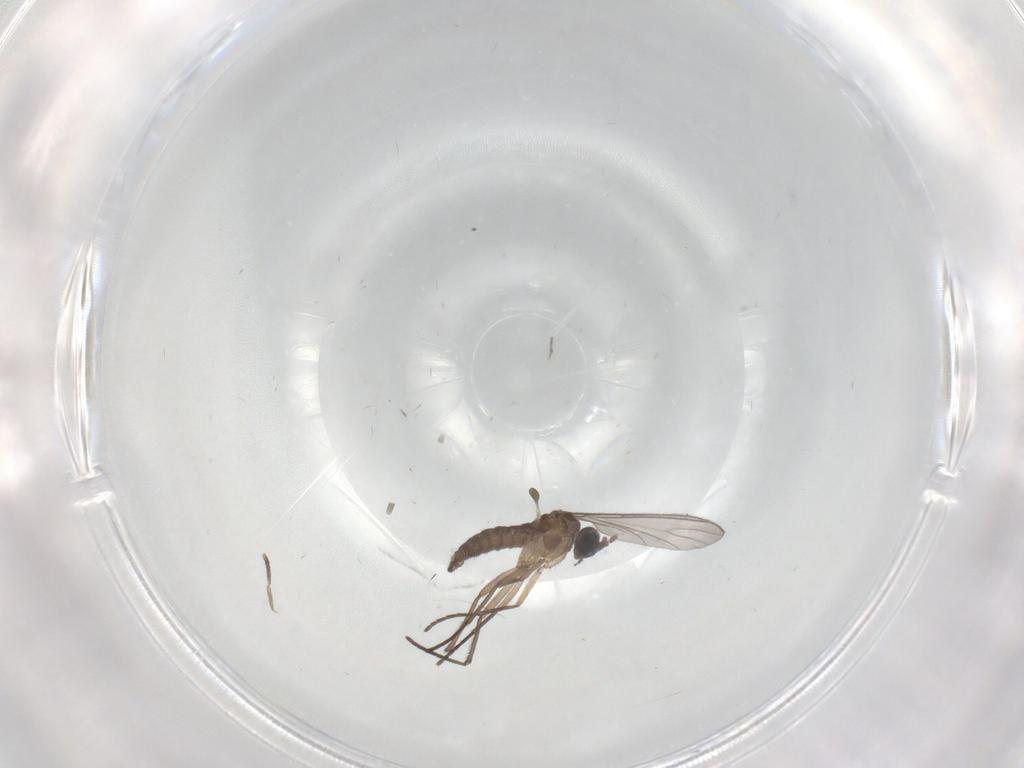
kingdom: Animalia
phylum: Arthropoda
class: Insecta
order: Diptera
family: Cecidomyiidae
